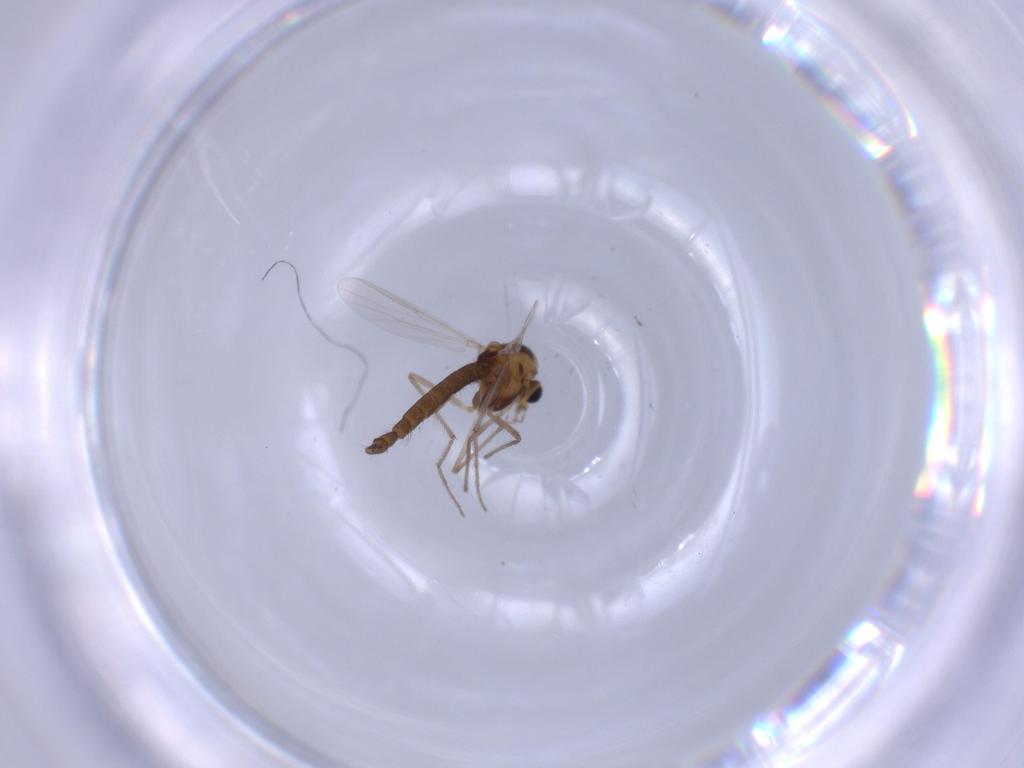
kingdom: Animalia
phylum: Arthropoda
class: Insecta
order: Diptera
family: Chironomidae
